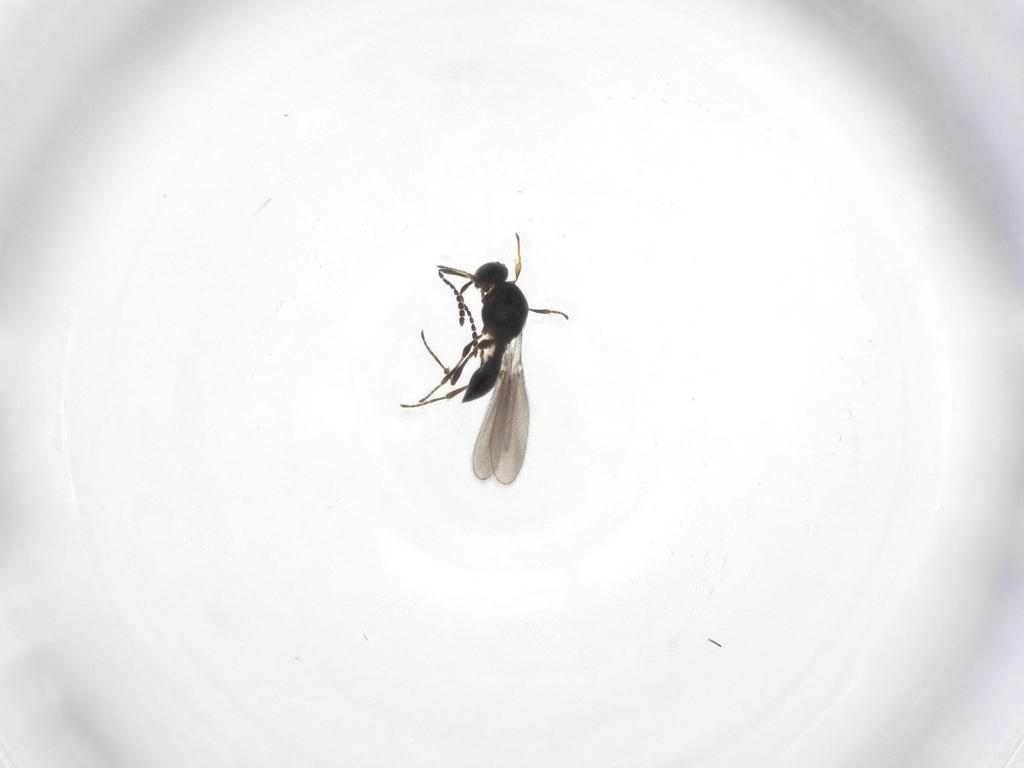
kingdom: Animalia
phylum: Arthropoda
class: Insecta
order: Hymenoptera
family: Platygastridae
